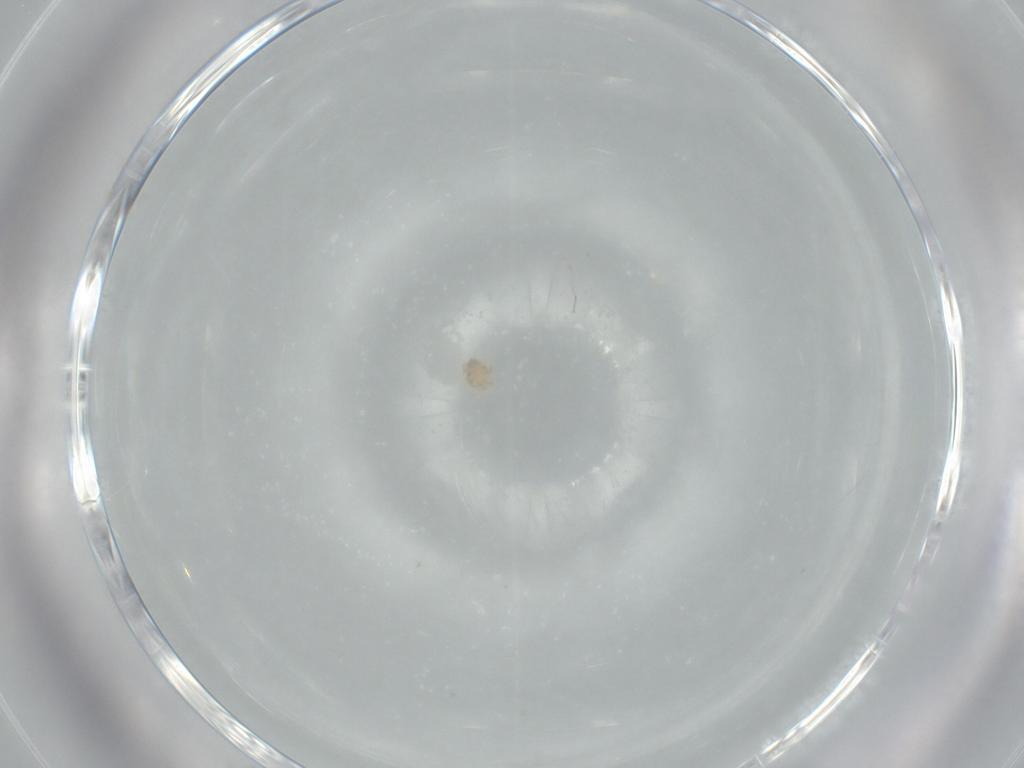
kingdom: Animalia
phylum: Arthropoda
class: Arachnida
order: Trombidiformes
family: Lebertiidae
